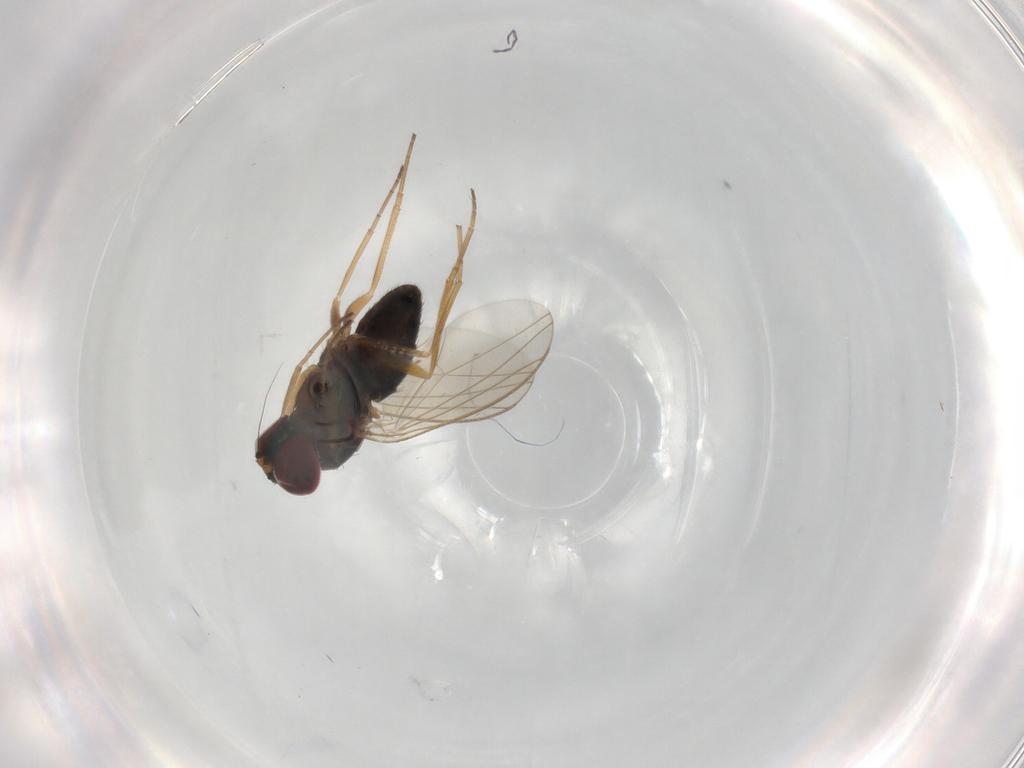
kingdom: Animalia
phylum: Arthropoda
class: Insecta
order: Diptera
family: Dolichopodidae
